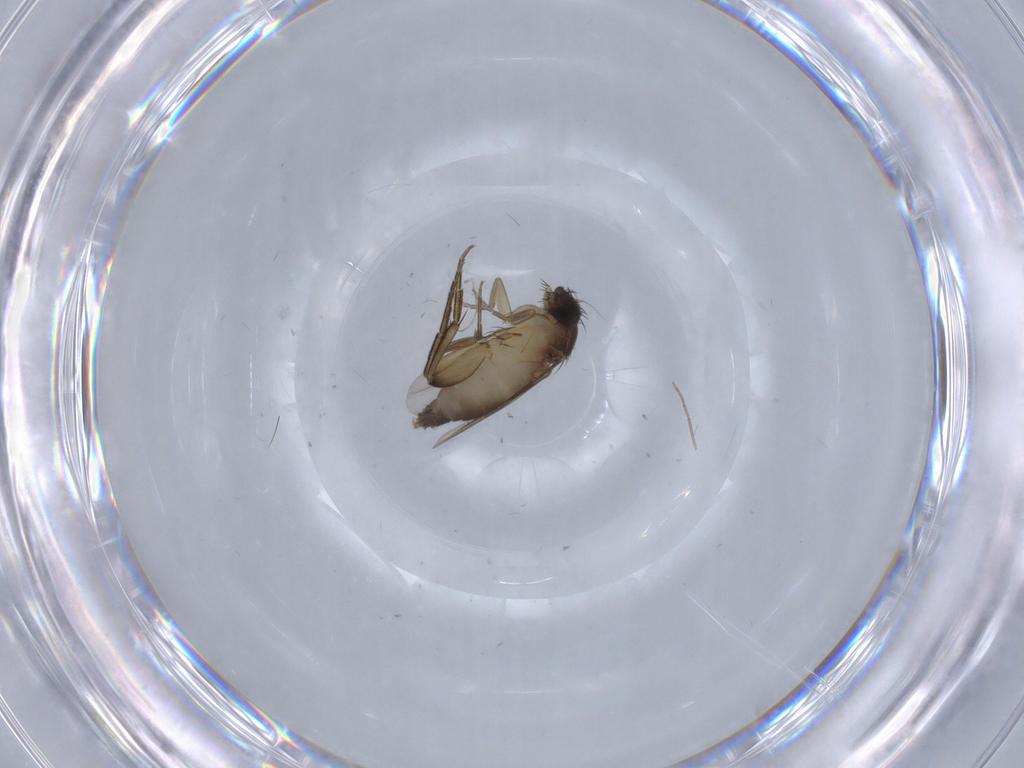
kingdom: Animalia
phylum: Arthropoda
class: Insecta
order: Diptera
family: Phoridae
